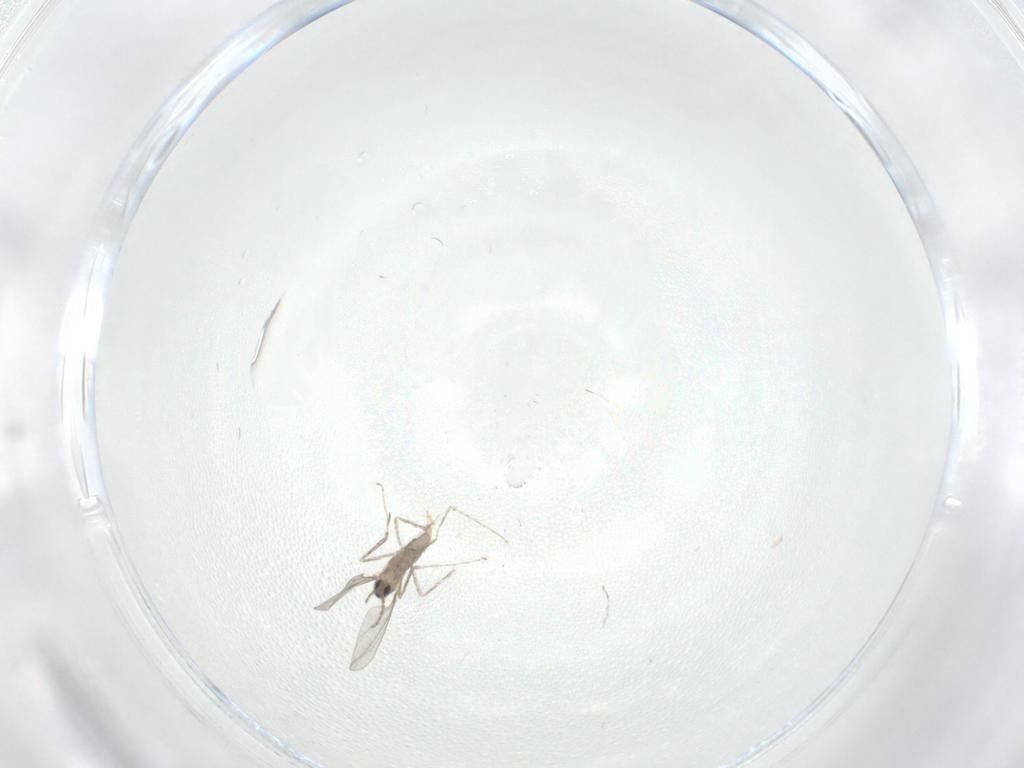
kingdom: Animalia
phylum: Arthropoda
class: Insecta
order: Diptera
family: Cecidomyiidae
